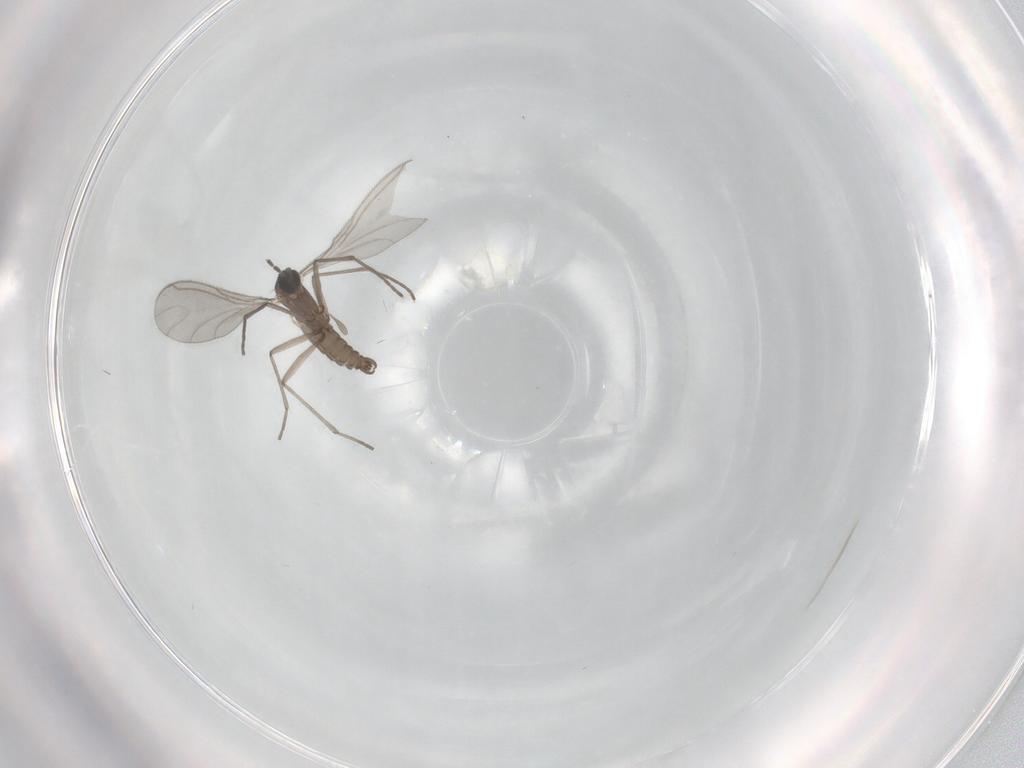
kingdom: Animalia
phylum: Arthropoda
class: Insecta
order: Diptera
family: Sciaridae
